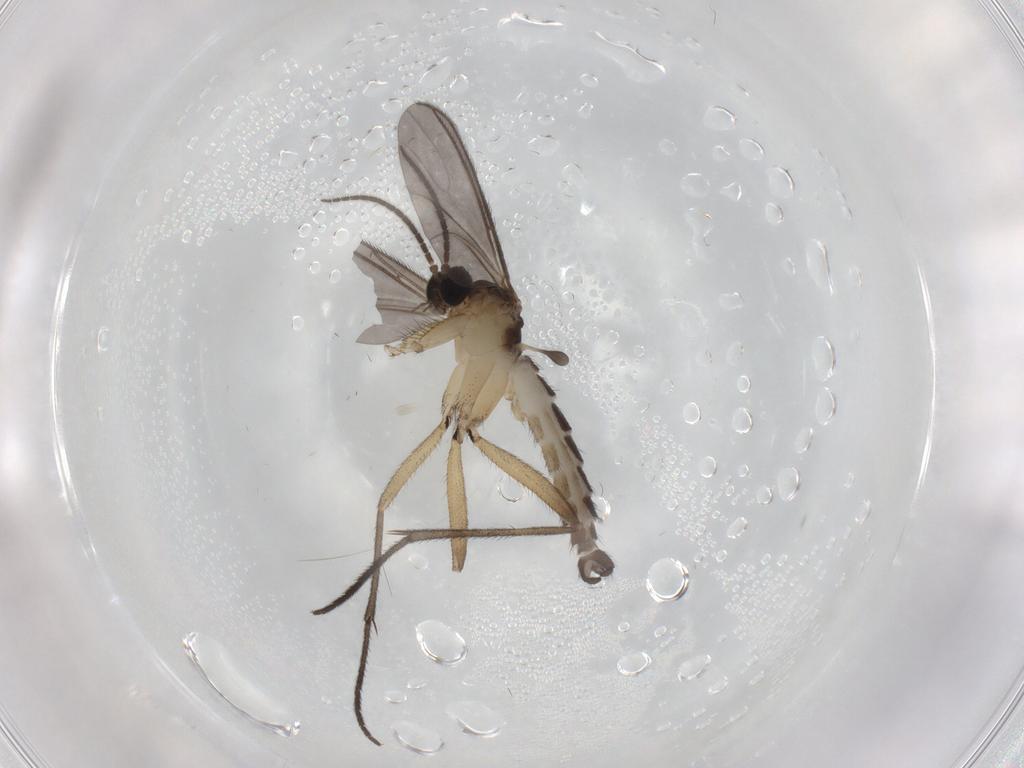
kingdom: Animalia
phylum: Arthropoda
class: Insecta
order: Diptera
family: Sciaridae
